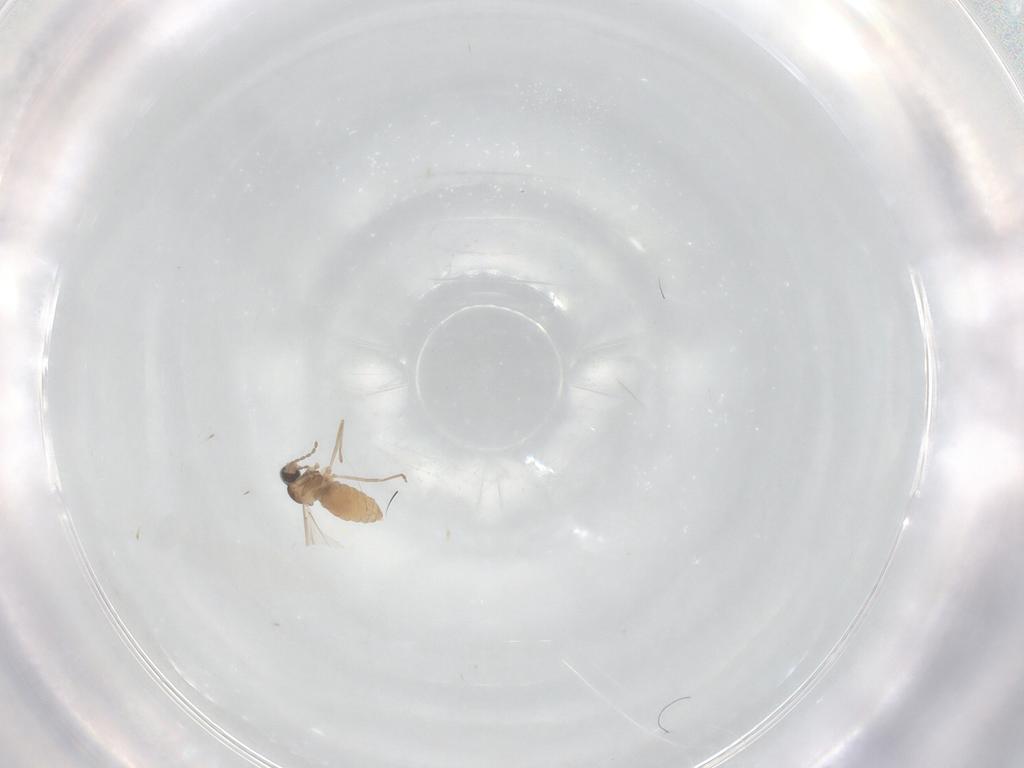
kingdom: Animalia
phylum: Arthropoda
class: Insecta
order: Diptera
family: Cecidomyiidae
